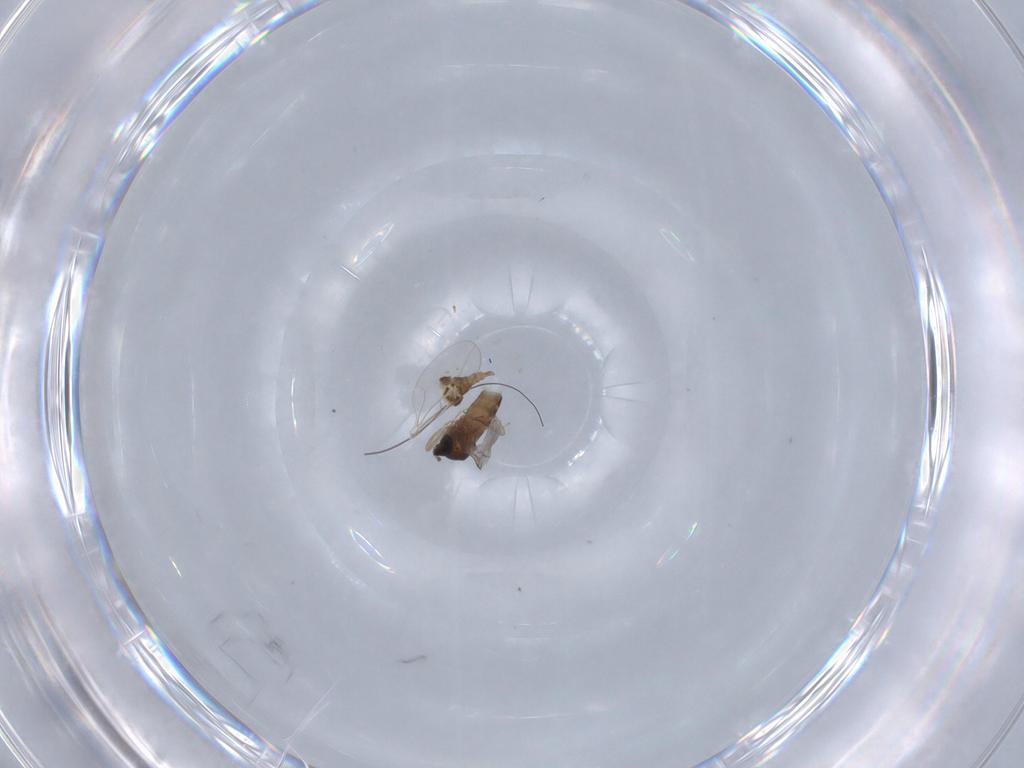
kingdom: Animalia
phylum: Arthropoda
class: Insecta
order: Diptera
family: Cecidomyiidae
